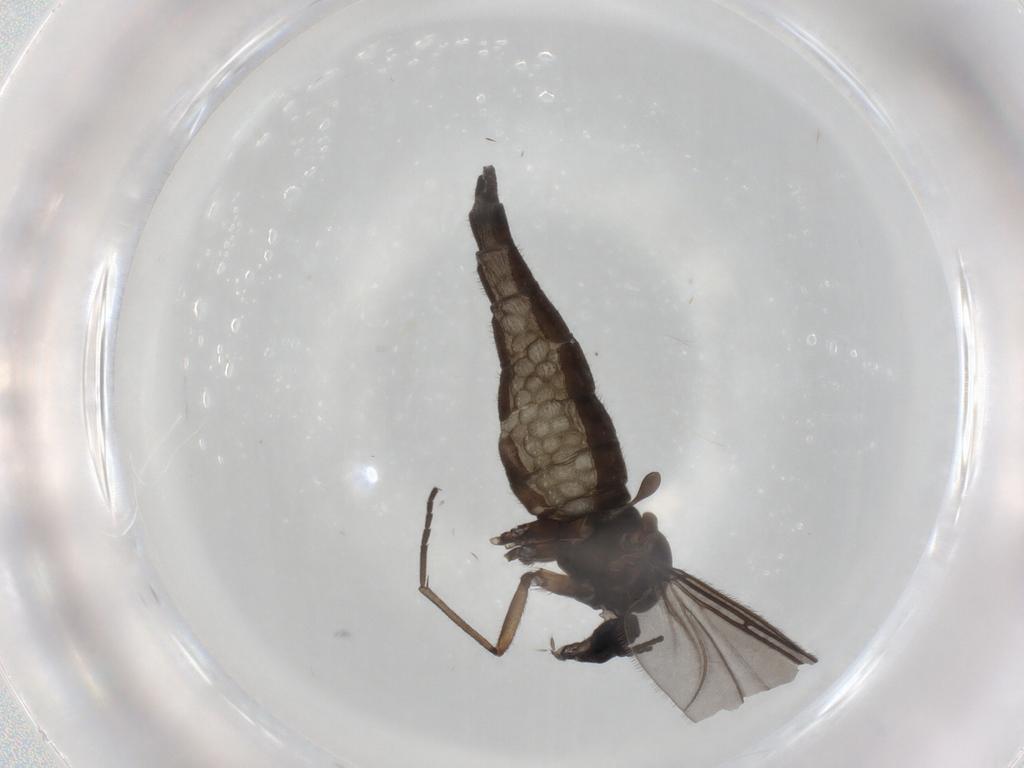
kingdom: Animalia
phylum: Arthropoda
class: Insecta
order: Diptera
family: Sciaridae
